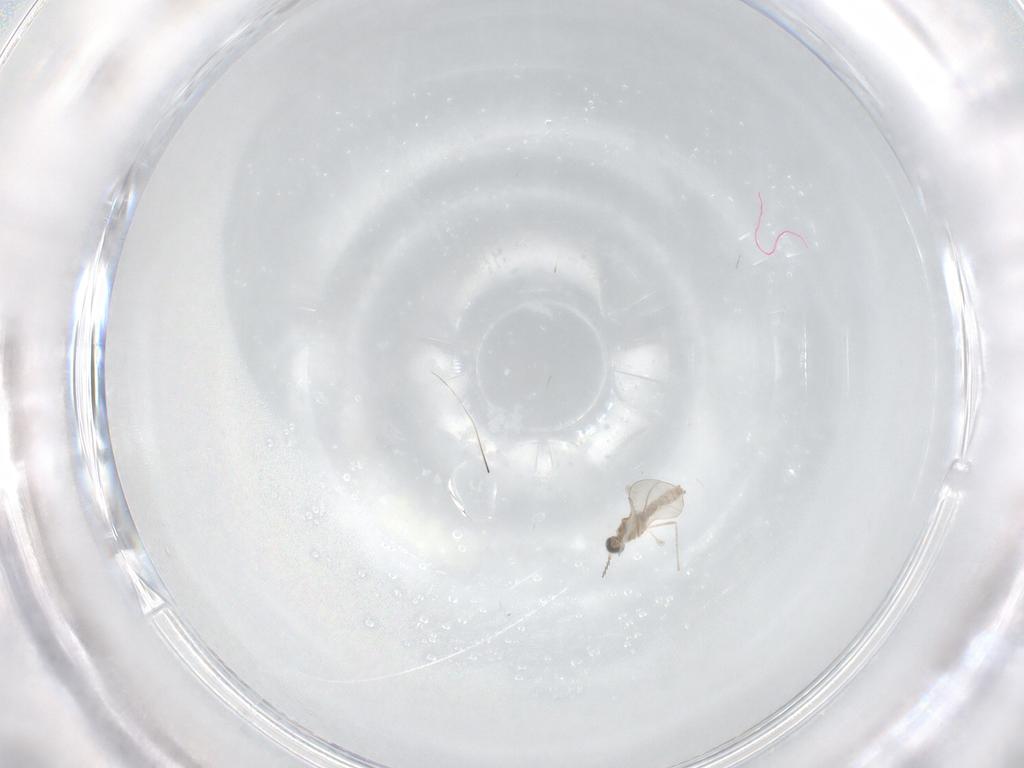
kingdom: Animalia
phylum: Arthropoda
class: Insecta
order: Diptera
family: Cecidomyiidae
